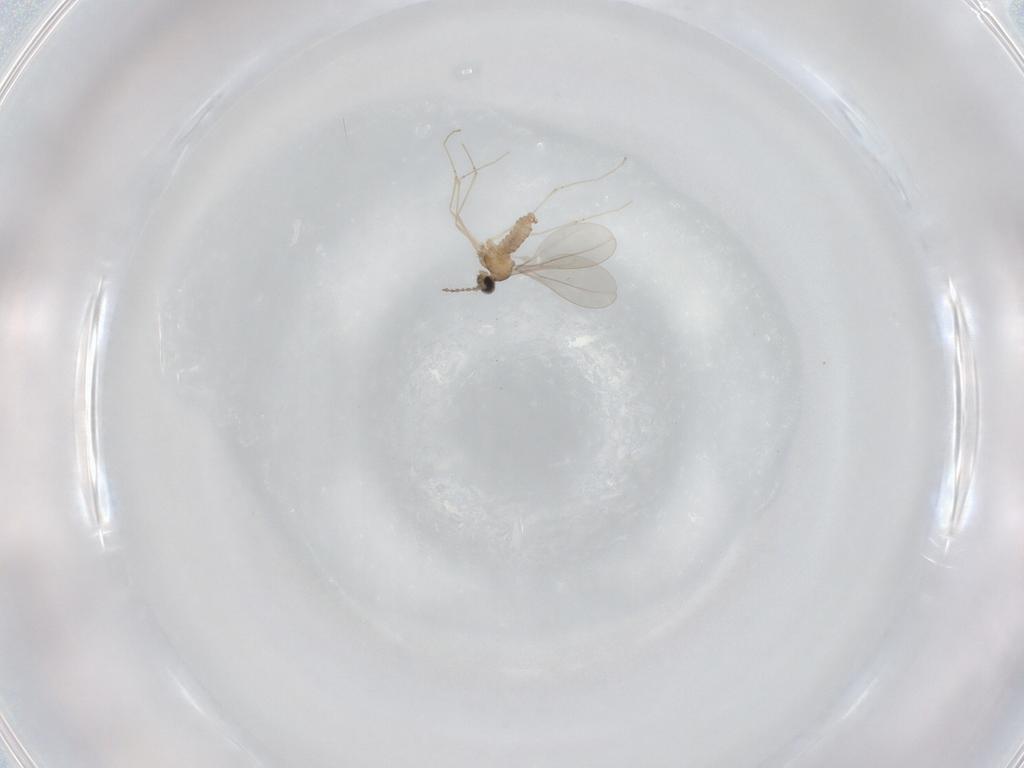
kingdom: Animalia
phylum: Arthropoda
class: Insecta
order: Diptera
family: Cecidomyiidae
